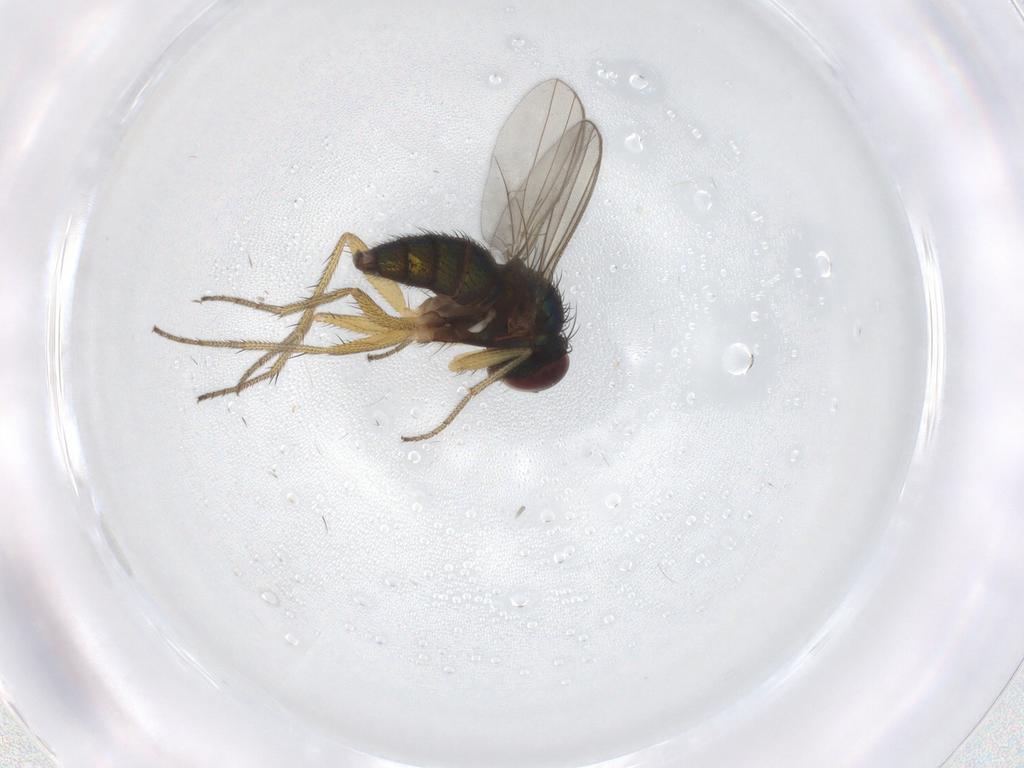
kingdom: Animalia
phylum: Arthropoda
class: Insecta
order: Diptera
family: Dolichopodidae
